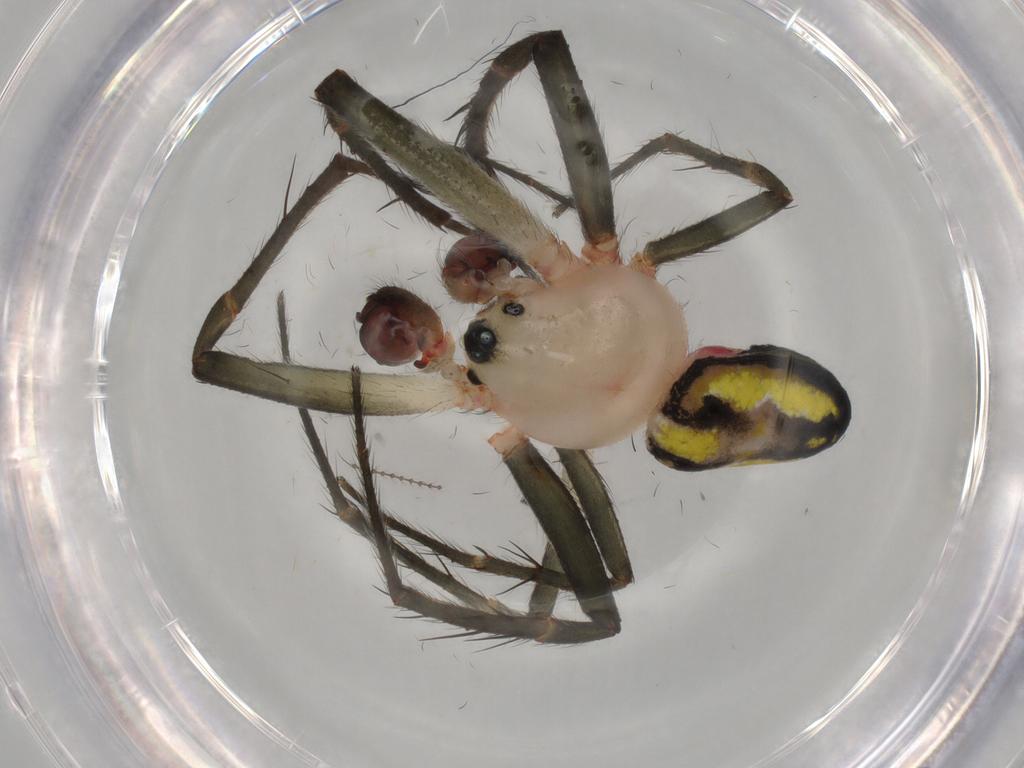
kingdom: Animalia
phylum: Arthropoda
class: Arachnida
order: Araneae
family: Araneidae
